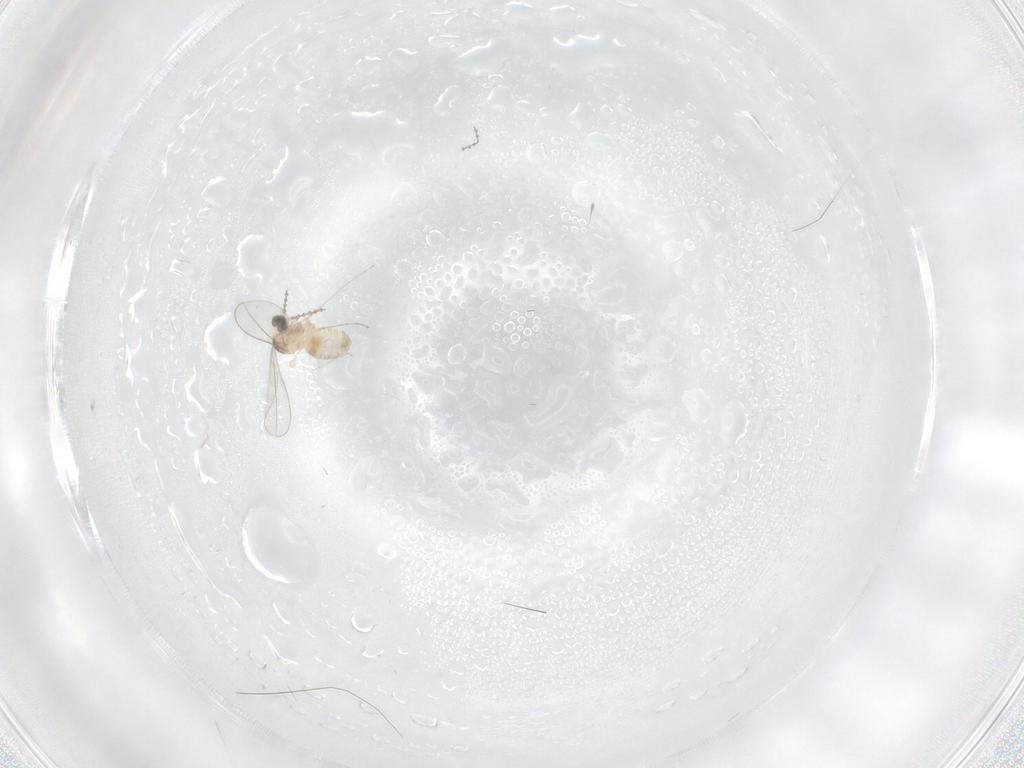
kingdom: Animalia
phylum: Arthropoda
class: Insecta
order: Diptera
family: Cecidomyiidae
